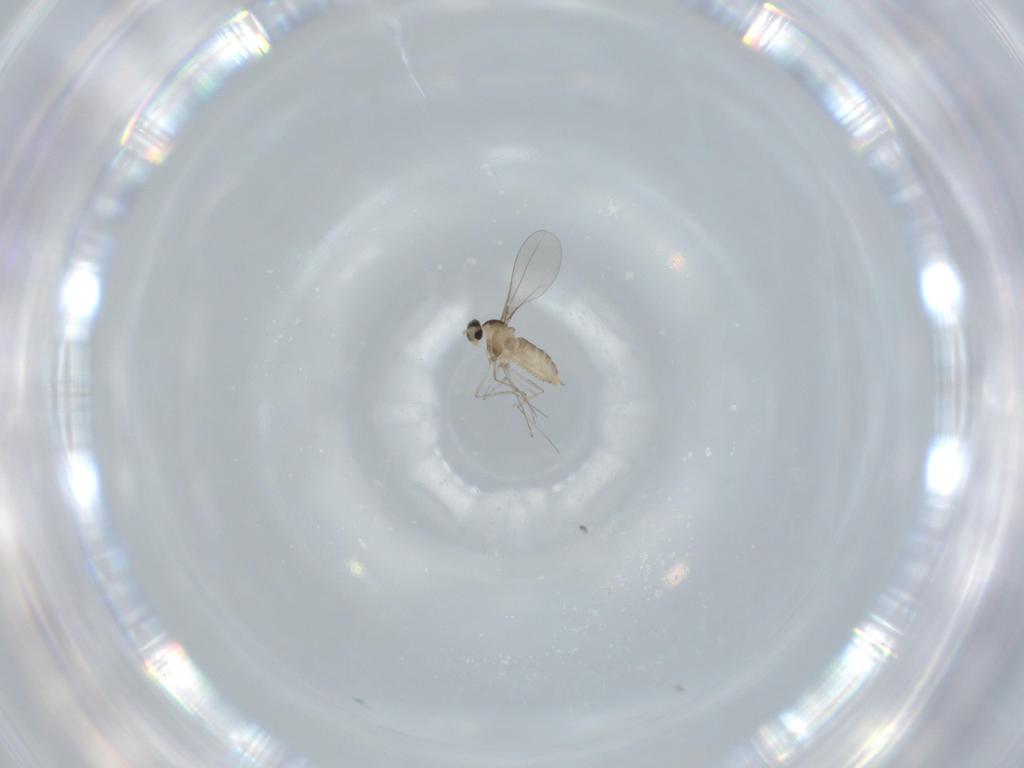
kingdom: Animalia
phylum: Arthropoda
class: Insecta
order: Diptera
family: Cecidomyiidae
